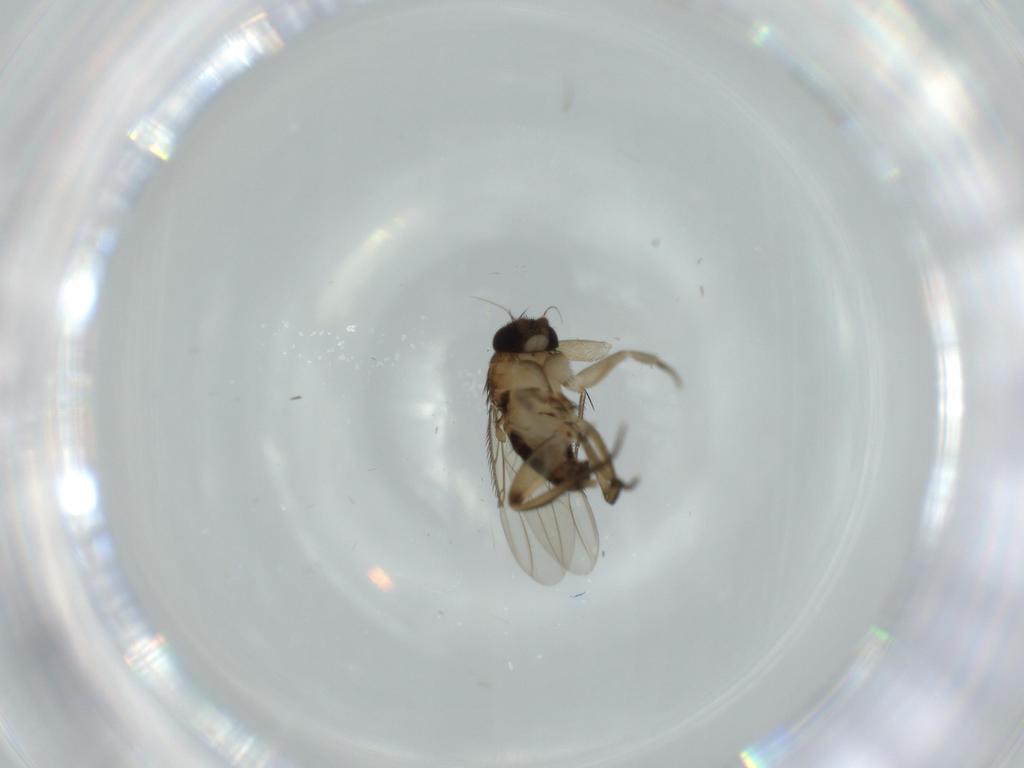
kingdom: Animalia
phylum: Arthropoda
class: Insecta
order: Diptera
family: Phoridae
